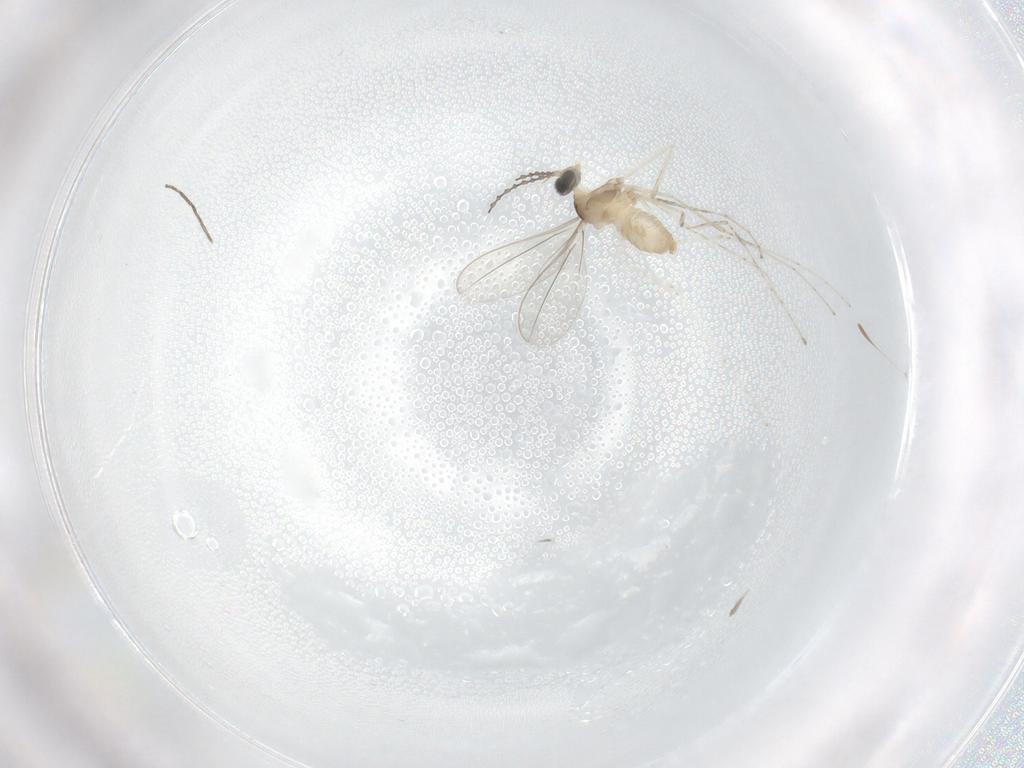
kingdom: Animalia
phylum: Arthropoda
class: Insecta
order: Diptera
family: Cecidomyiidae
